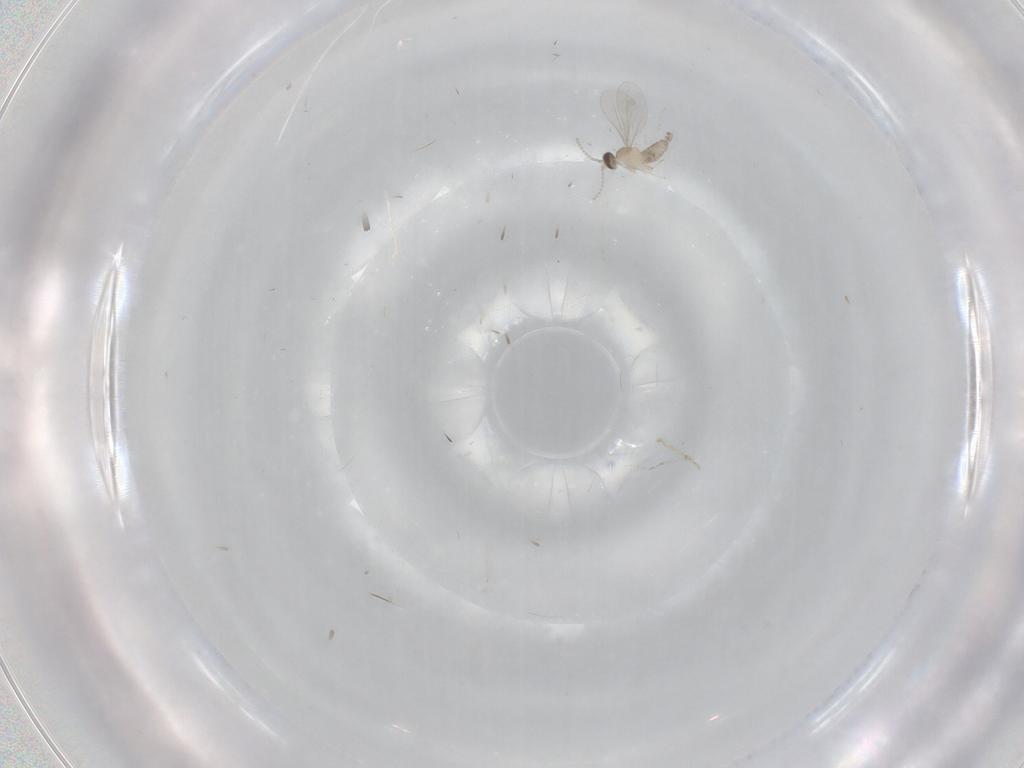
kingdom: Animalia
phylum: Arthropoda
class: Insecta
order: Diptera
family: Cecidomyiidae
